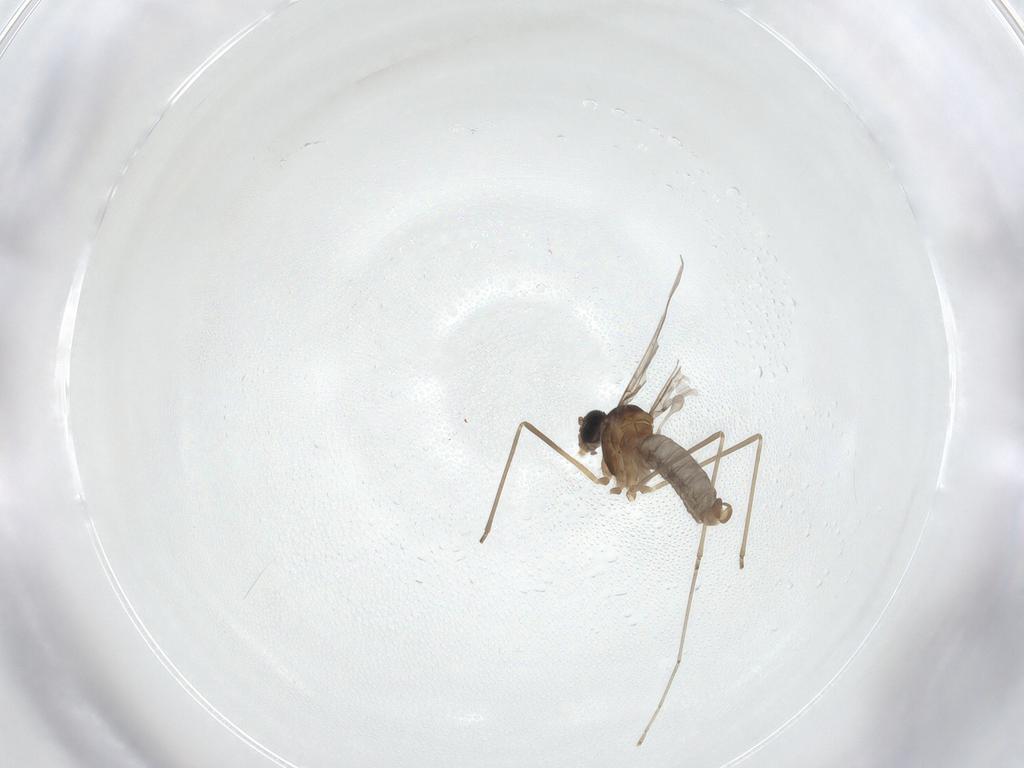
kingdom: Animalia
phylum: Arthropoda
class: Insecta
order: Diptera
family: Cecidomyiidae
